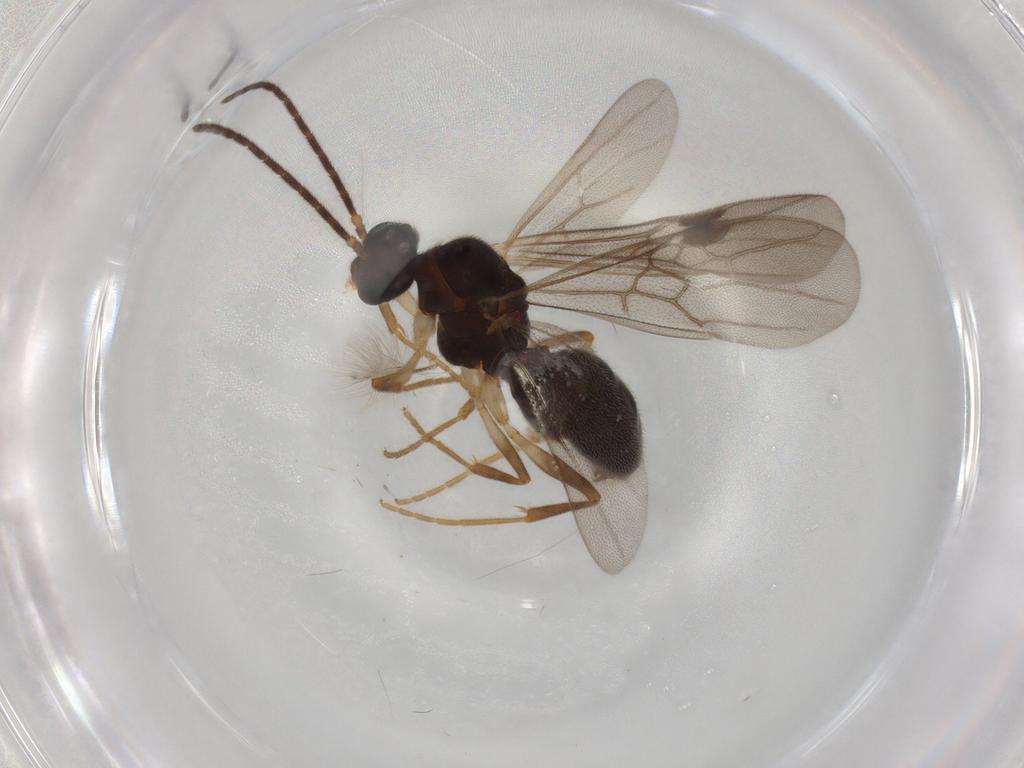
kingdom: Animalia
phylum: Arthropoda
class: Insecta
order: Hymenoptera
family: Formicidae
